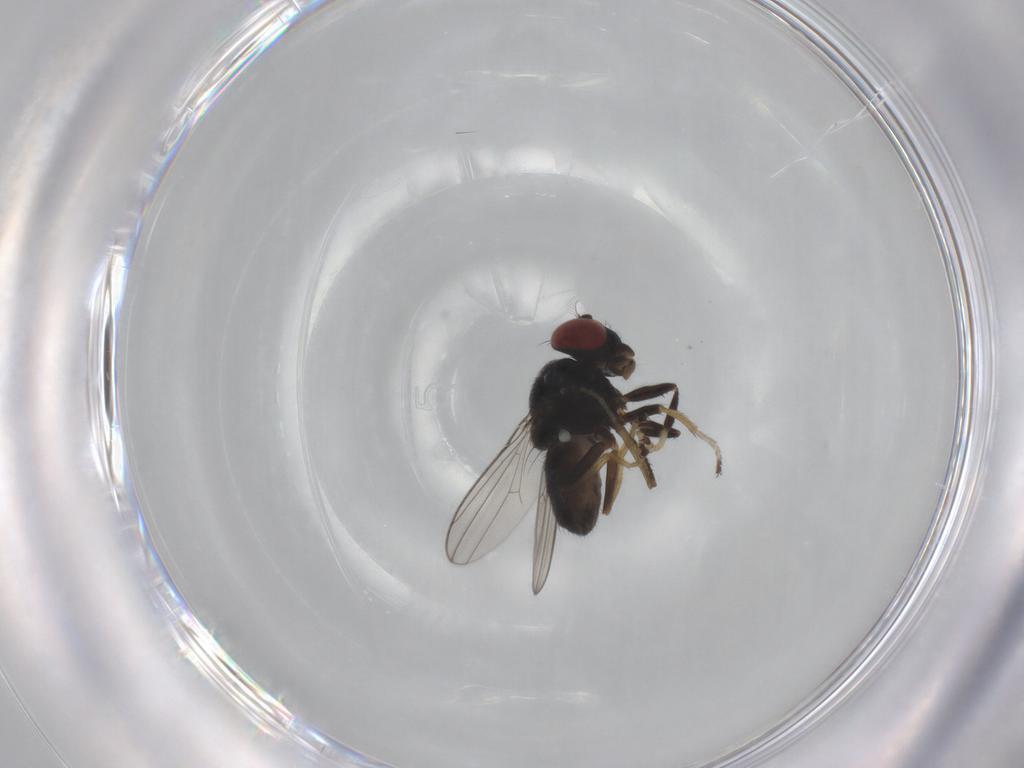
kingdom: Animalia
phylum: Arthropoda
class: Insecta
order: Diptera
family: Ephydridae
